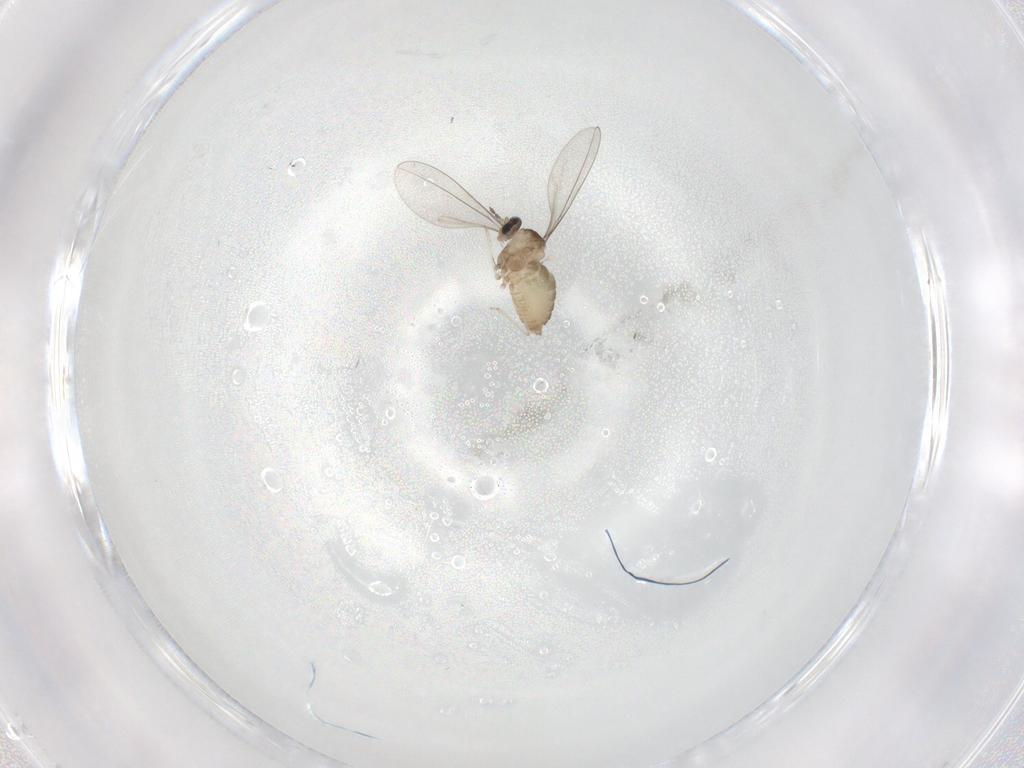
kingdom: Animalia
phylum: Arthropoda
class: Insecta
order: Diptera
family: Cecidomyiidae
